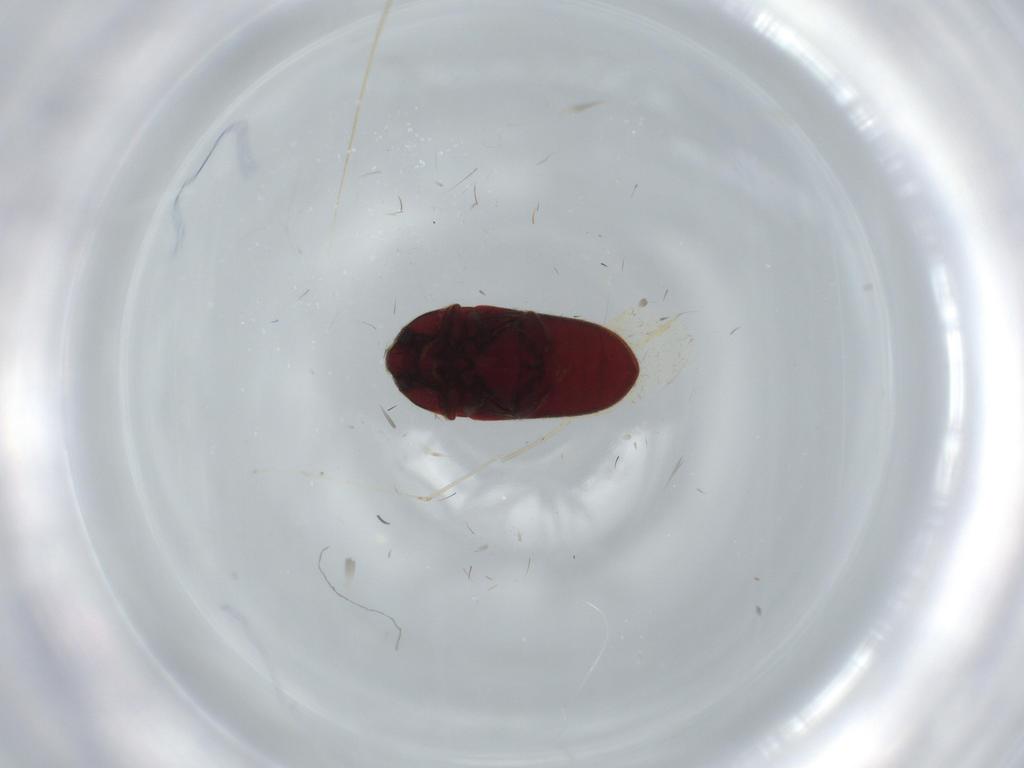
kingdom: Animalia
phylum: Arthropoda
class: Insecta
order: Coleoptera
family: Throscidae
